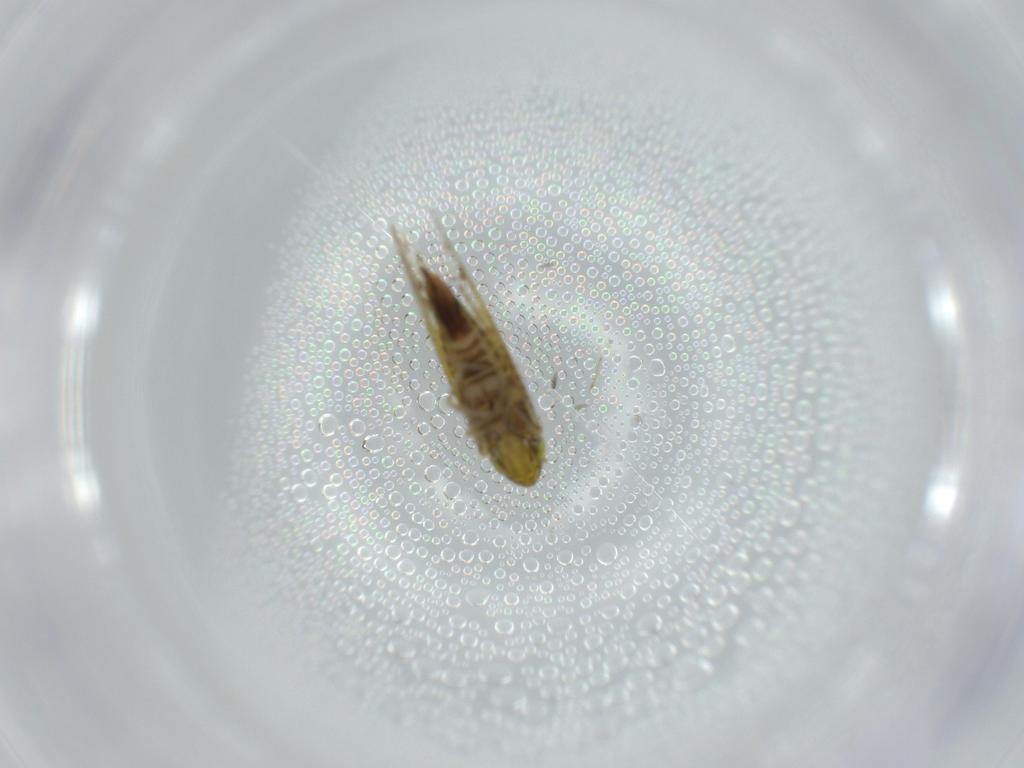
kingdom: Animalia
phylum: Arthropoda
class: Insecta
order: Hemiptera
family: Cicadellidae
